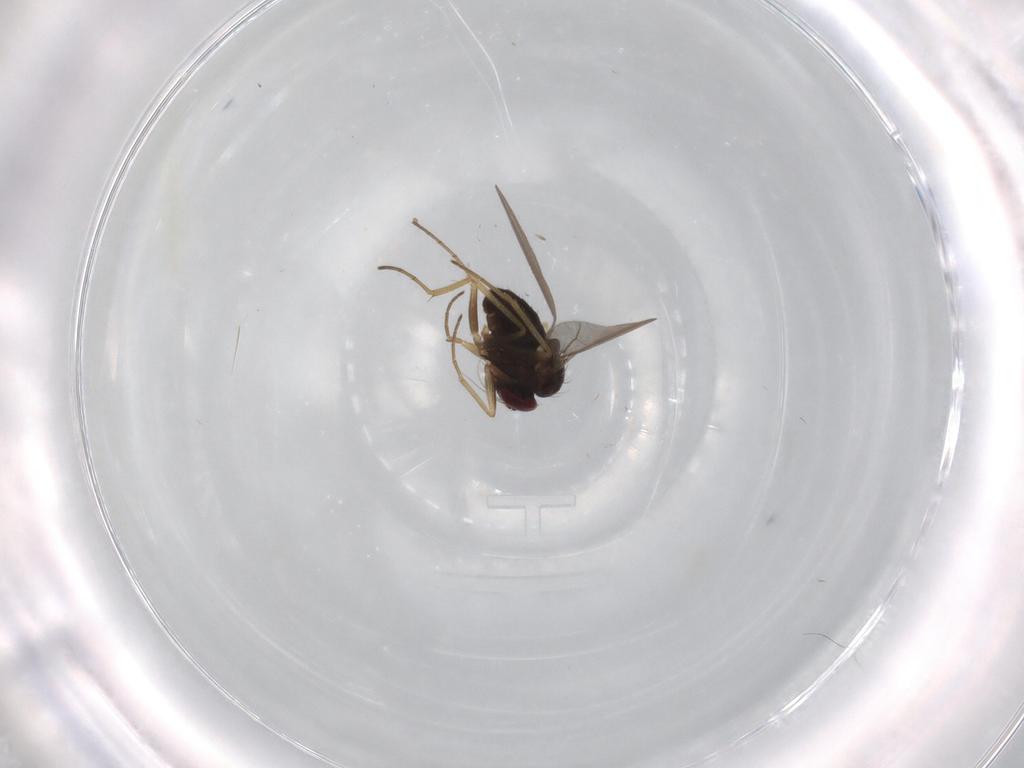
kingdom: Animalia
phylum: Arthropoda
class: Insecta
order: Diptera
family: Dolichopodidae
